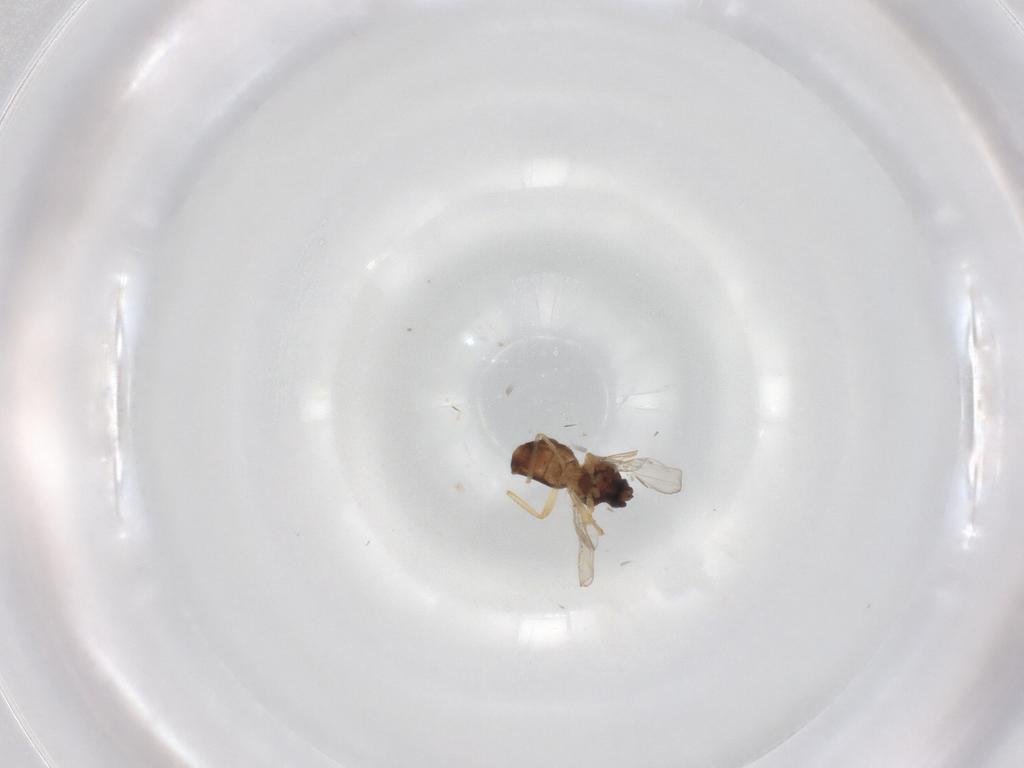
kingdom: Animalia
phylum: Arthropoda
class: Insecta
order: Diptera
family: Ceratopogonidae
